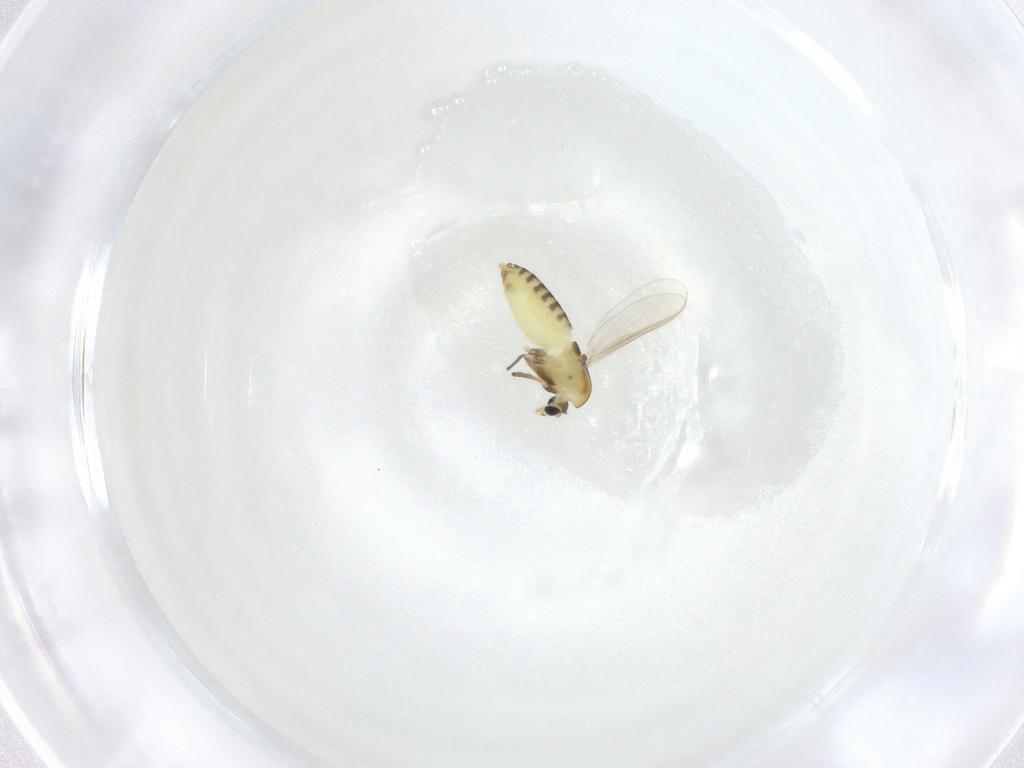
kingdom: Animalia
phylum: Arthropoda
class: Insecta
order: Diptera
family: Chironomidae
